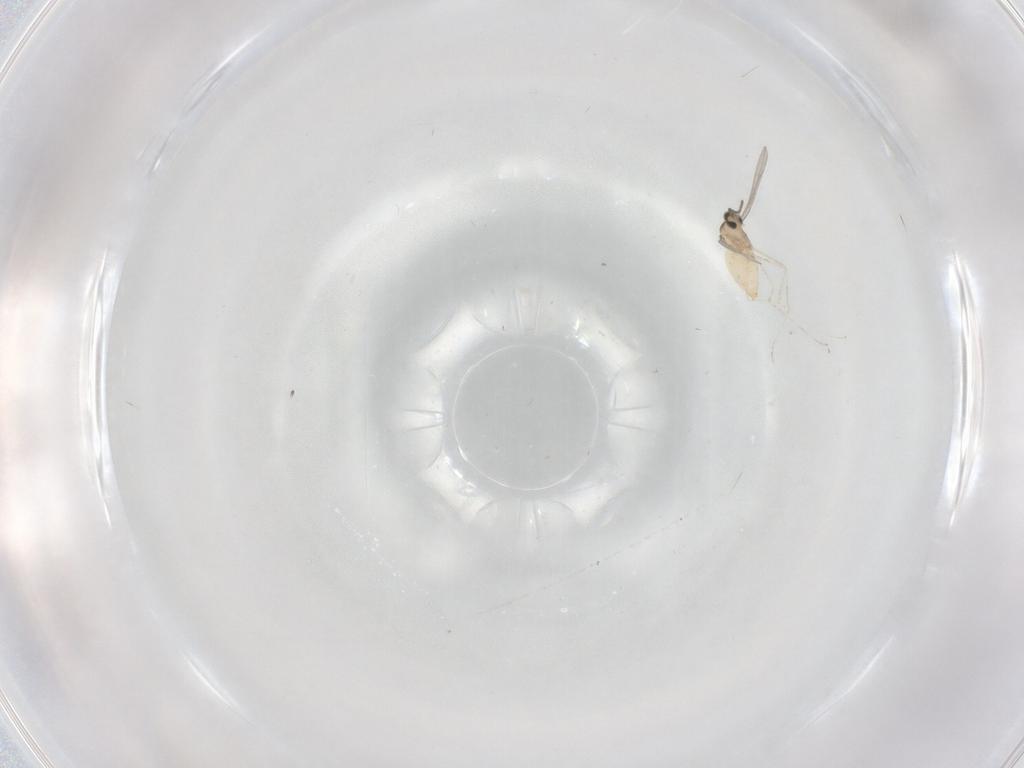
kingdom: Animalia
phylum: Arthropoda
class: Insecta
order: Diptera
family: Cecidomyiidae
